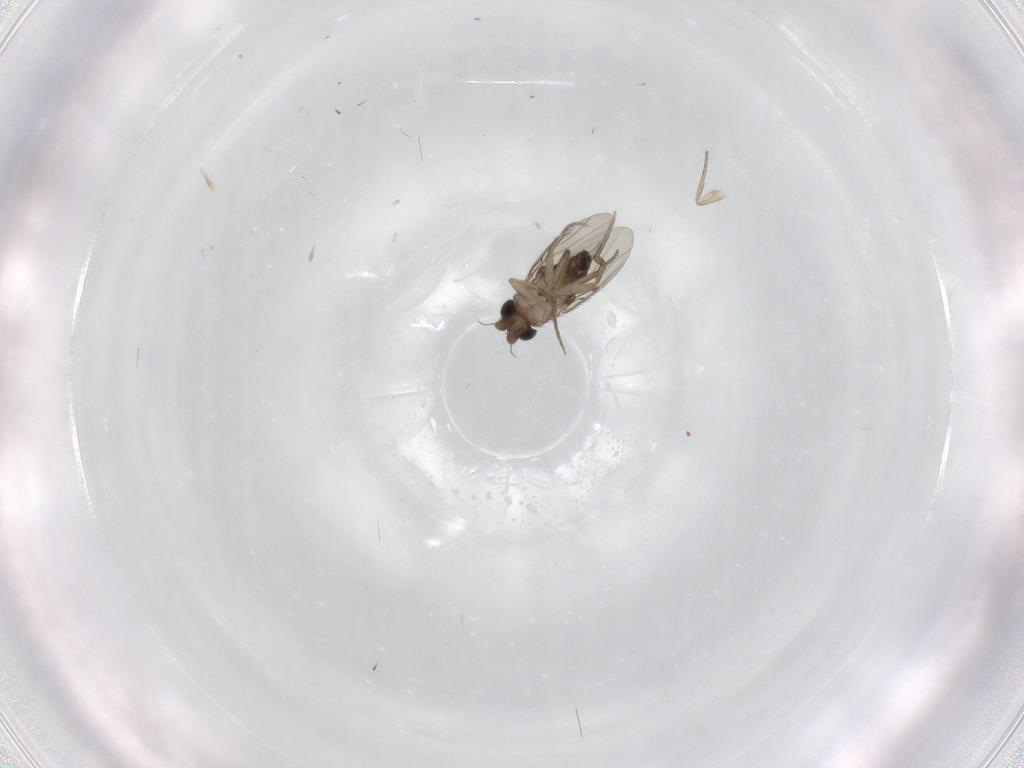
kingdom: Animalia
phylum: Arthropoda
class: Insecta
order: Diptera
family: Phoridae
